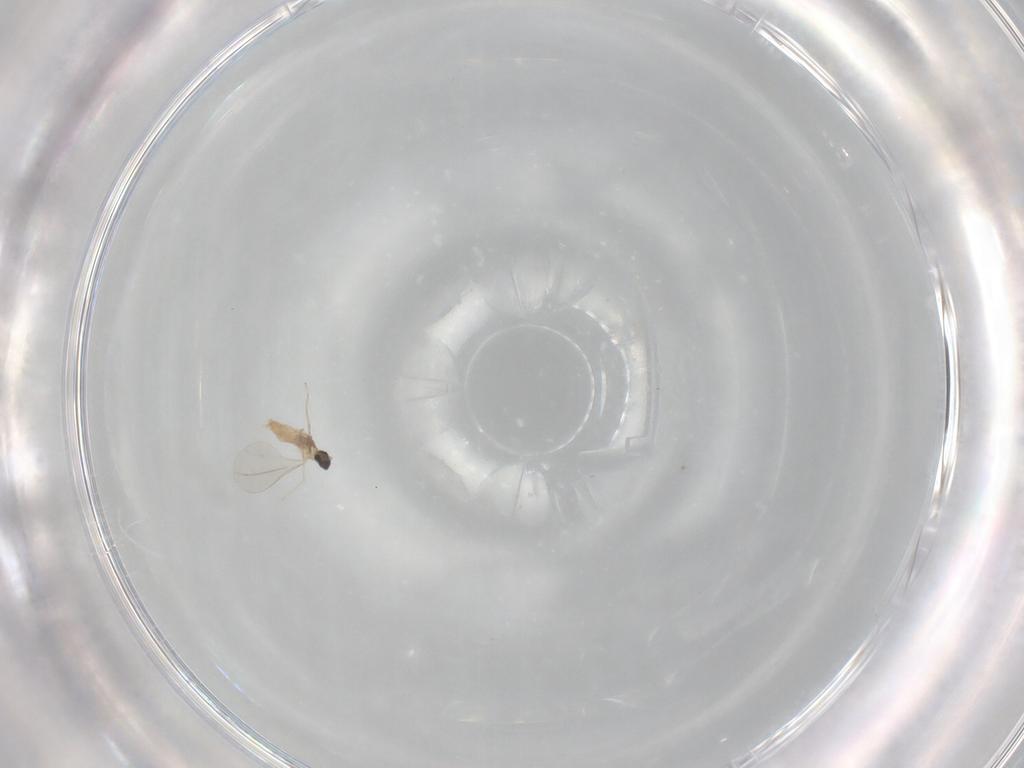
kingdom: Animalia
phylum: Arthropoda
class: Insecta
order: Diptera
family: Cecidomyiidae
